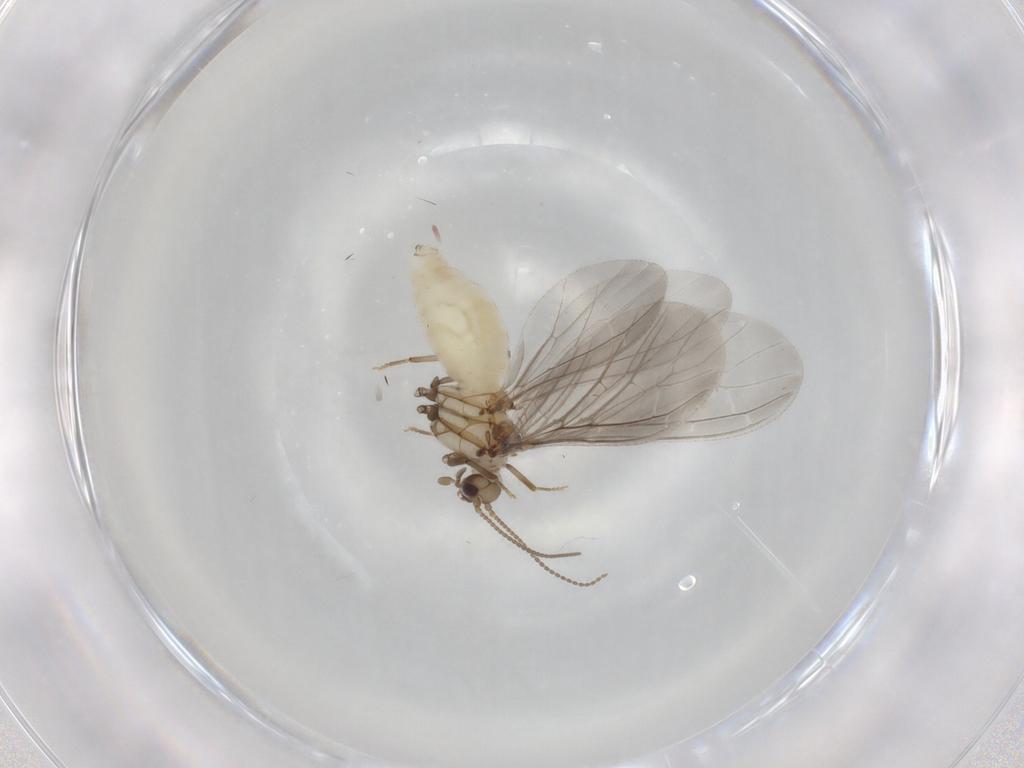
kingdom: Animalia
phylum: Arthropoda
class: Insecta
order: Neuroptera
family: Coniopterygidae
